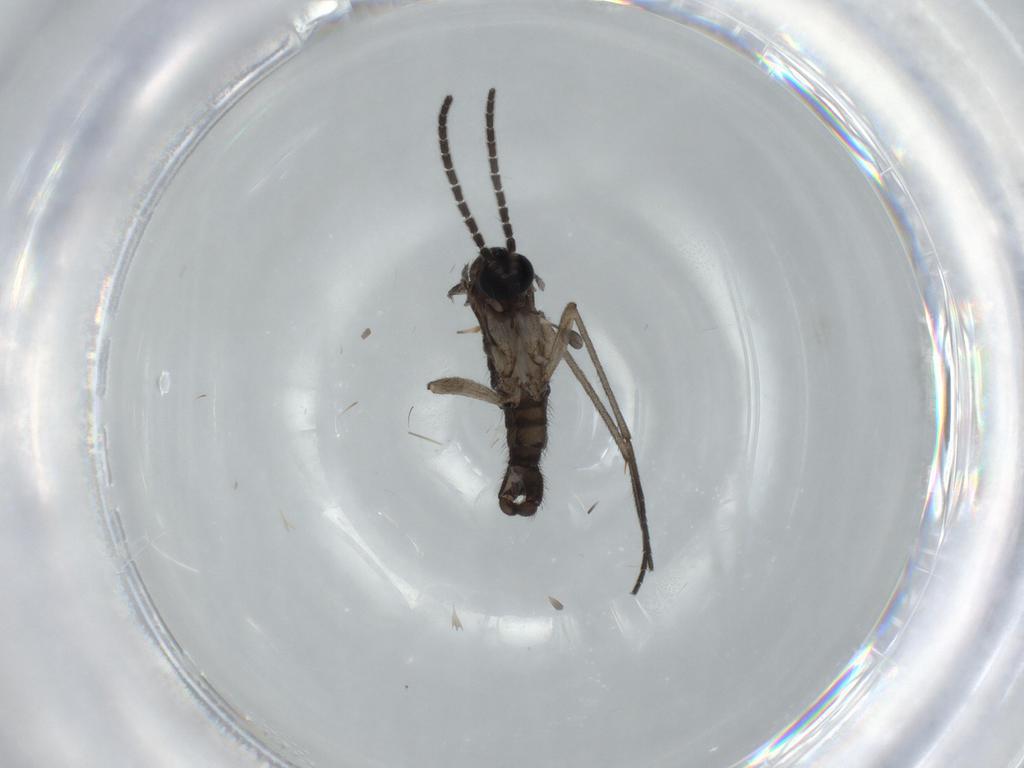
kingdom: Animalia
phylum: Arthropoda
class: Insecta
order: Diptera
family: Sciaridae
